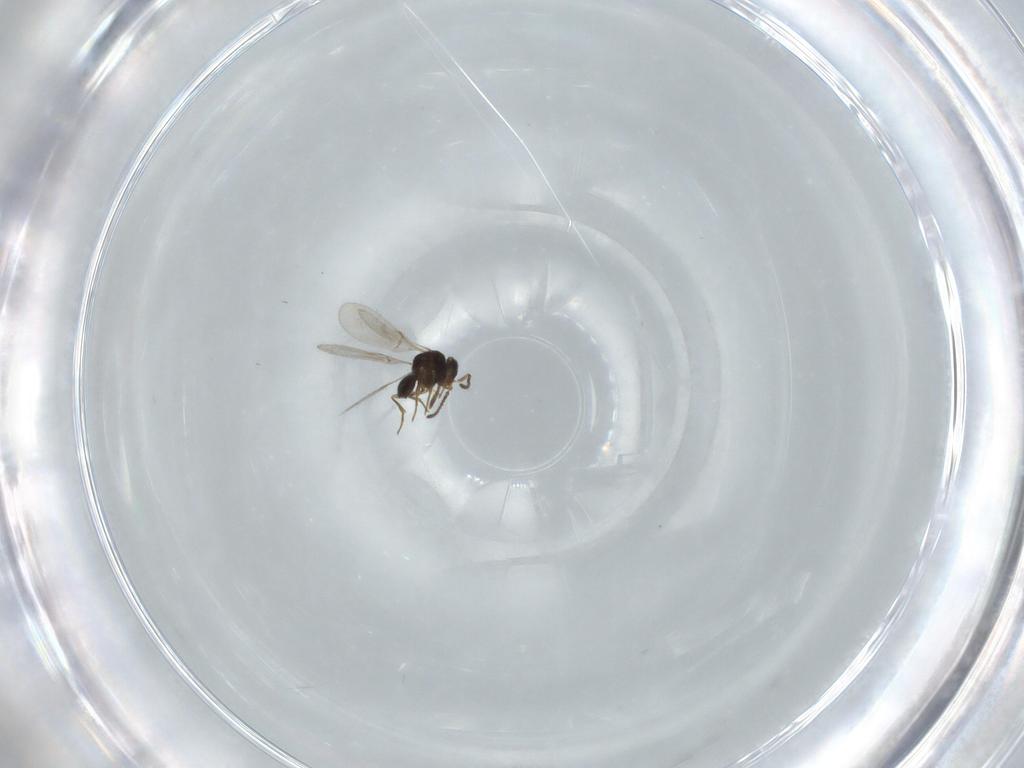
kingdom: Animalia
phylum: Arthropoda
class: Insecta
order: Hymenoptera
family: Scelionidae
